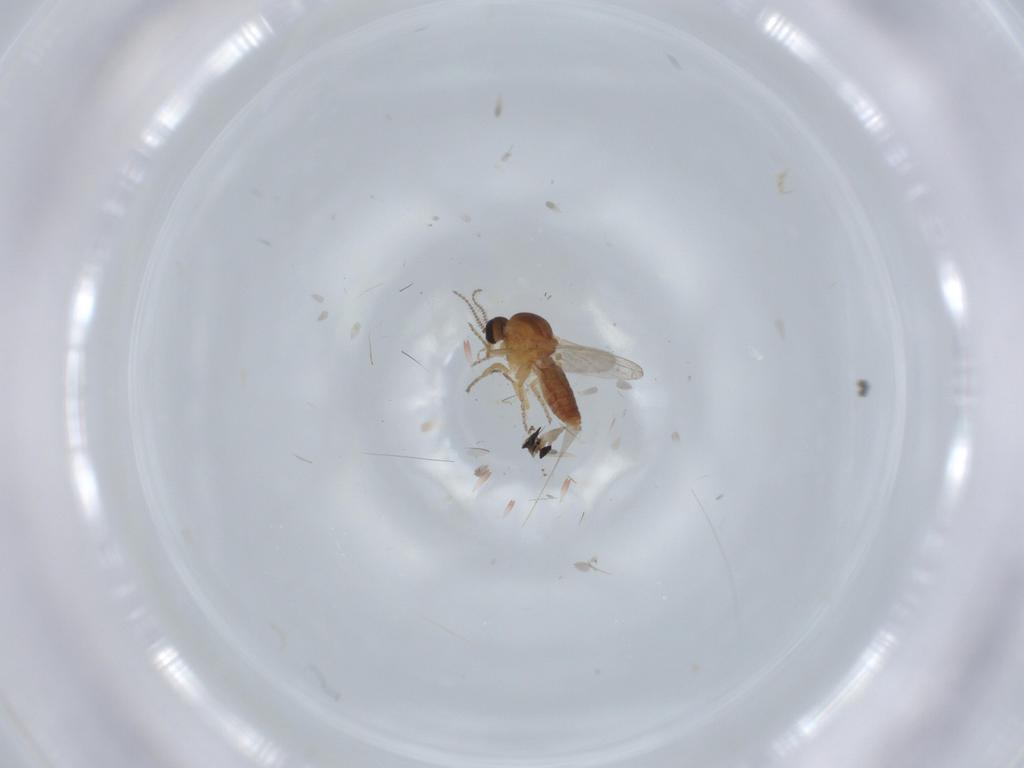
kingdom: Animalia
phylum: Arthropoda
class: Insecta
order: Diptera
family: Ceratopogonidae
